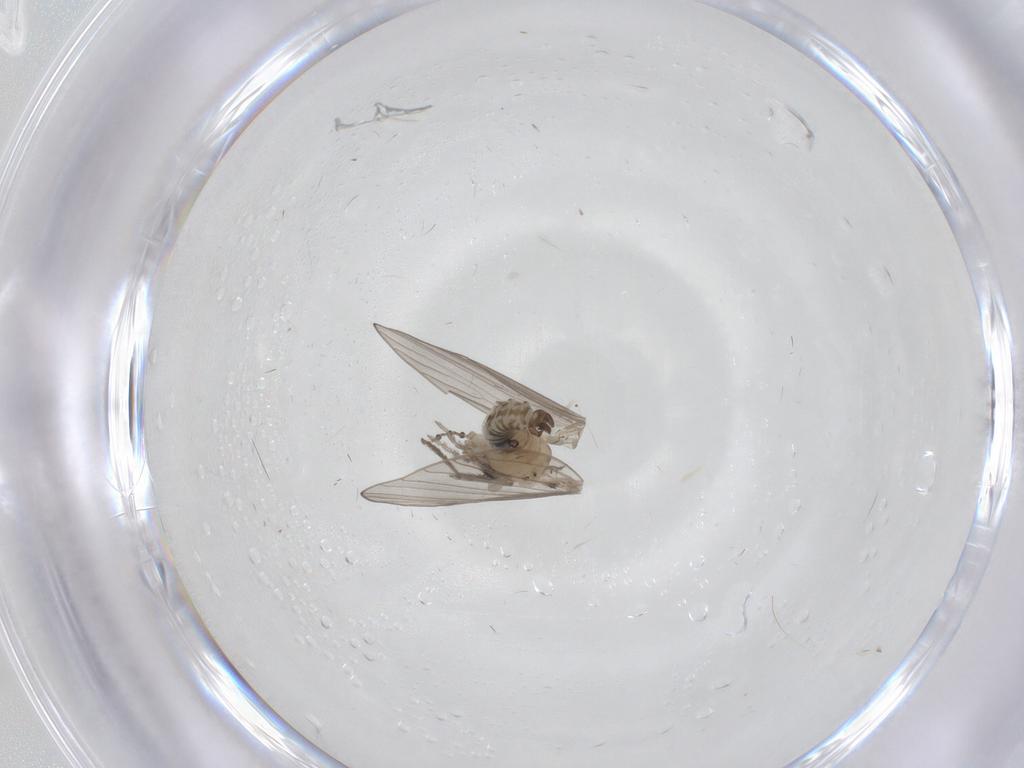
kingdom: Animalia
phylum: Arthropoda
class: Insecta
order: Diptera
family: Psychodidae
